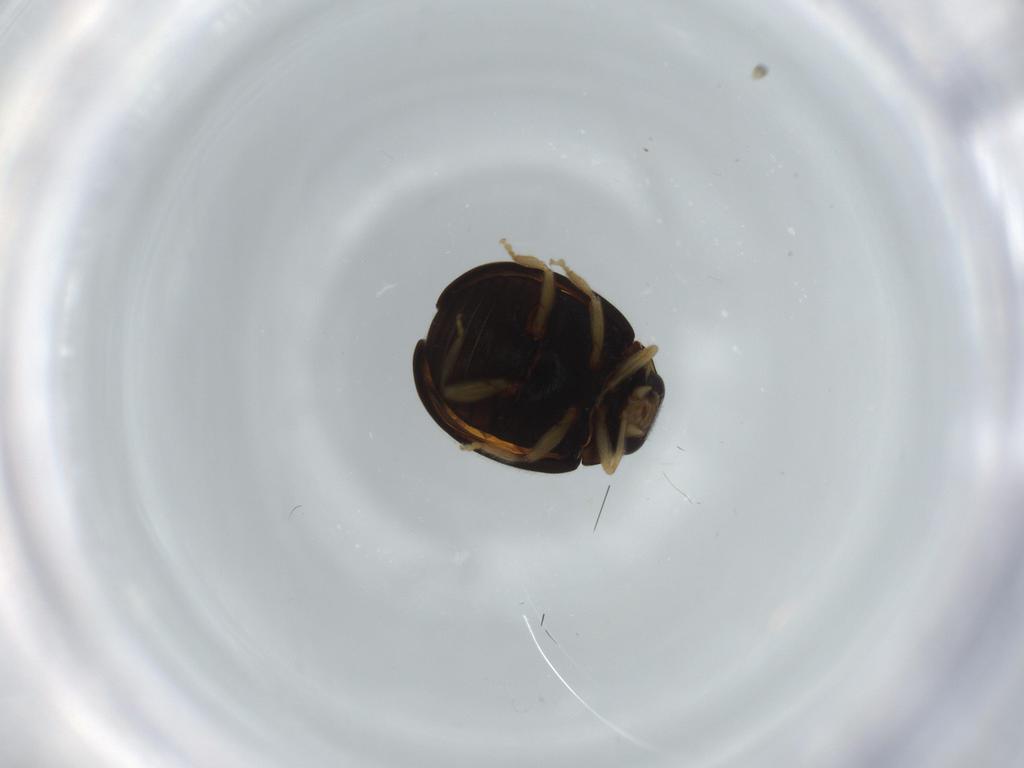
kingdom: Animalia
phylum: Arthropoda
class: Insecta
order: Coleoptera
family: Coccinellidae
